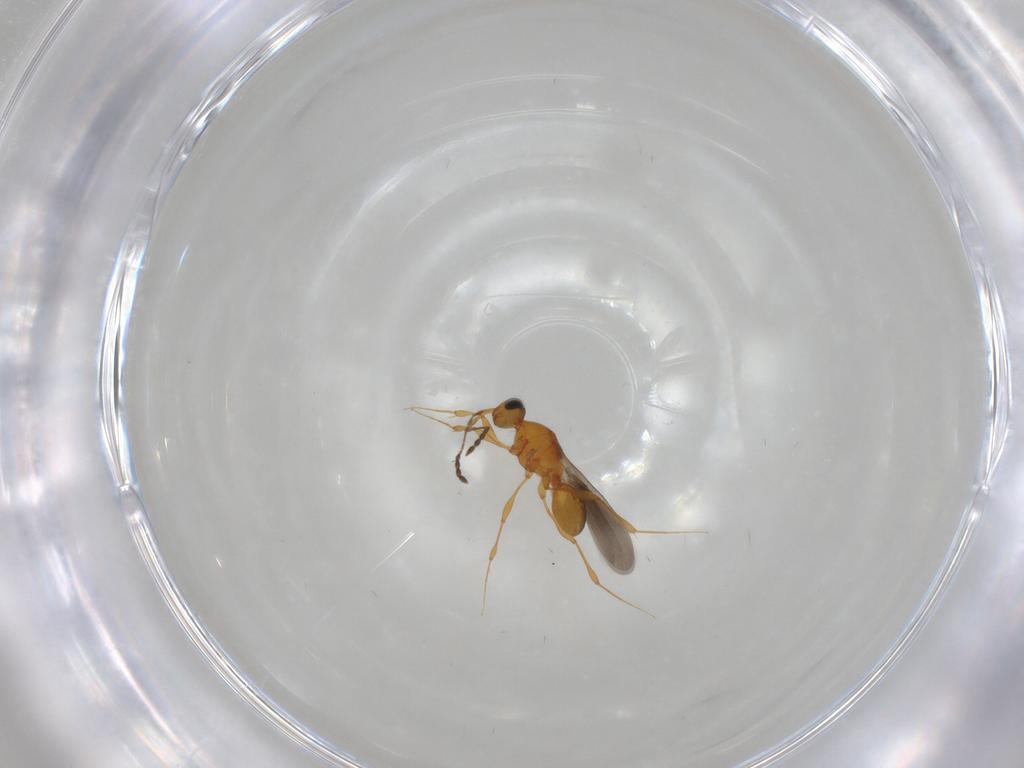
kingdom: Animalia
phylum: Arthropoda
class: Insecta
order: Hymenoptera
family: Platygastridae
